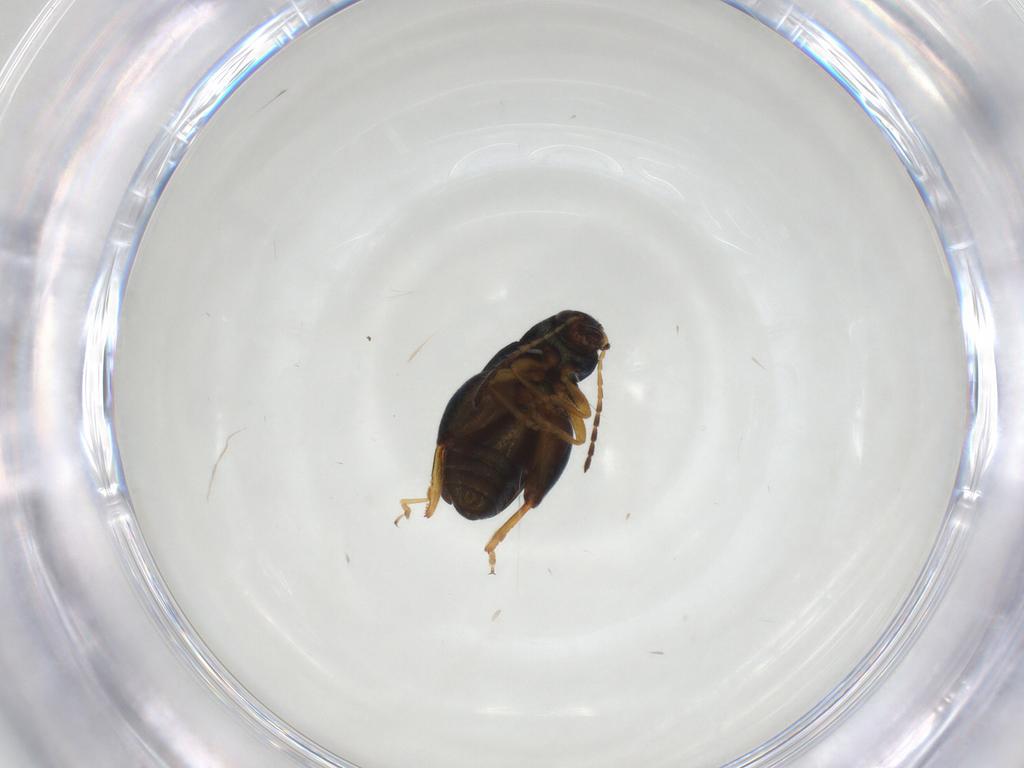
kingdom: Animalia
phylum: Arthropoda
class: Insecta
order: Coleoptera
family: Chrysomelidae
